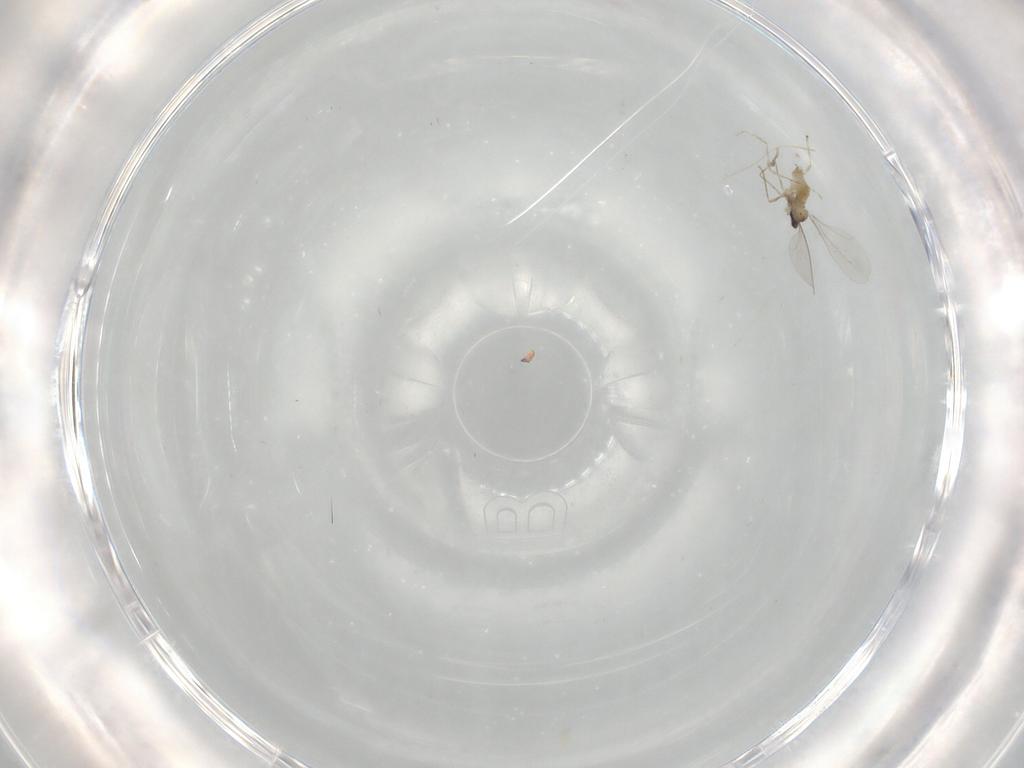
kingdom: Animalia
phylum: Arthropoda
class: Insecta
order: Diptera
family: Cecidomyiidae
